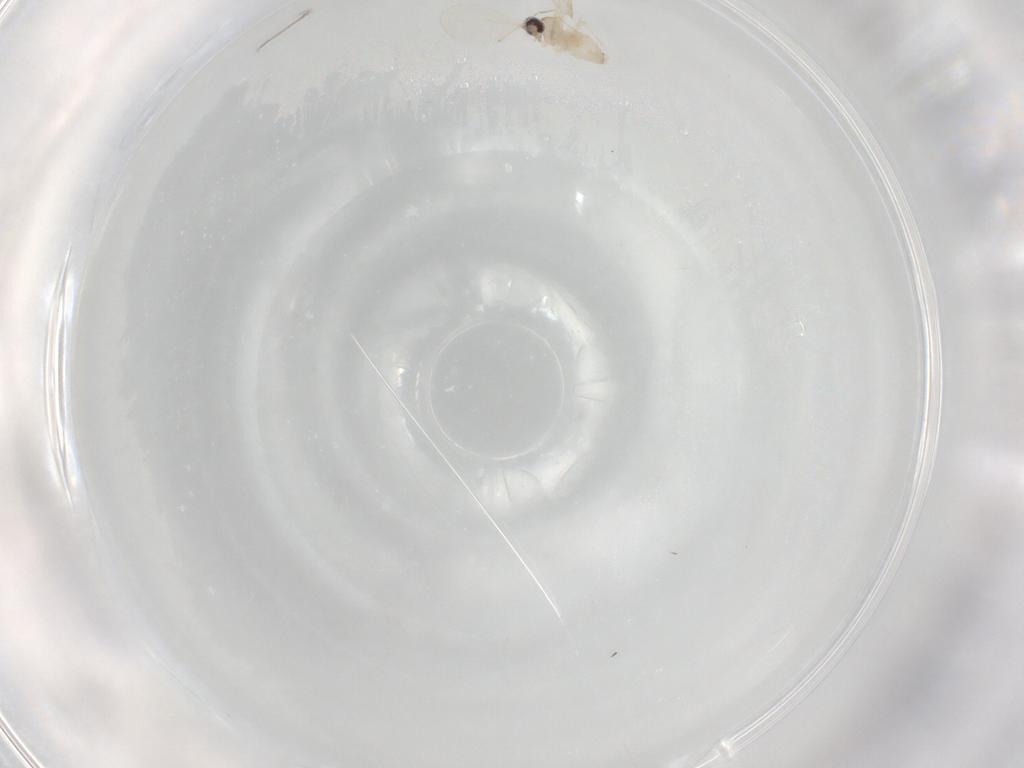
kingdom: Animalia
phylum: Arthropoda
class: Insecta
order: Diptera
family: Cecidomyiidae
